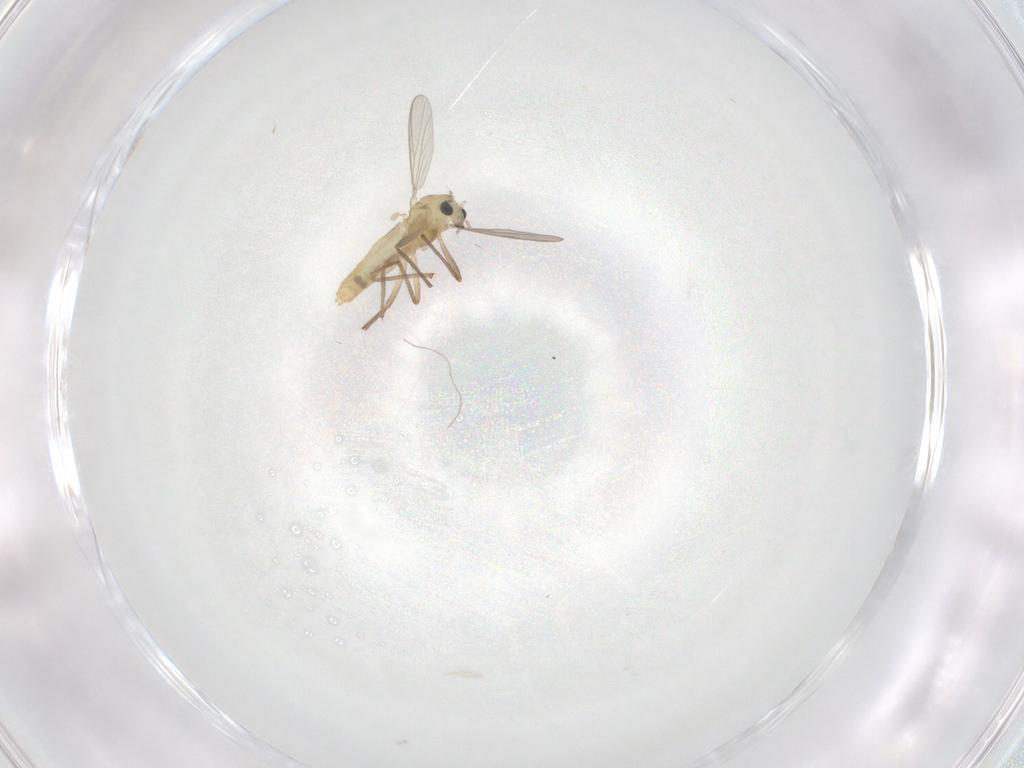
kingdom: Animalia
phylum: Arthropoda
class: Insecta
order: Diptera
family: Chironomidae
